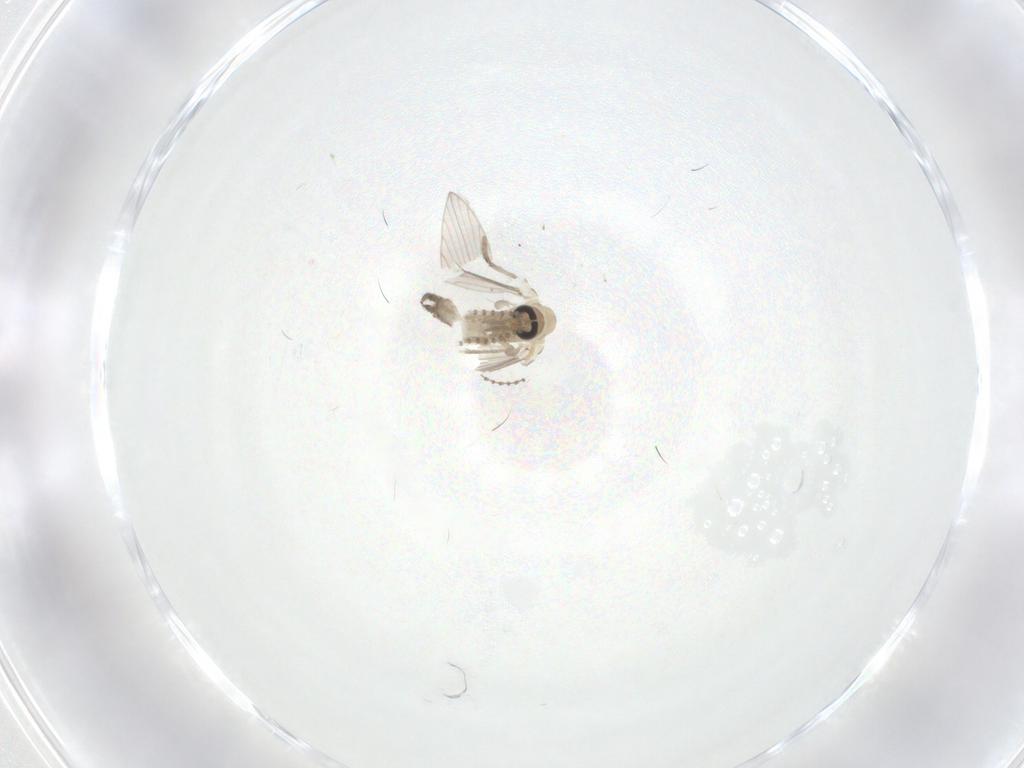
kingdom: Animalia
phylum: Arthropoda
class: Insecta
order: Diptera
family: Psychodidae
